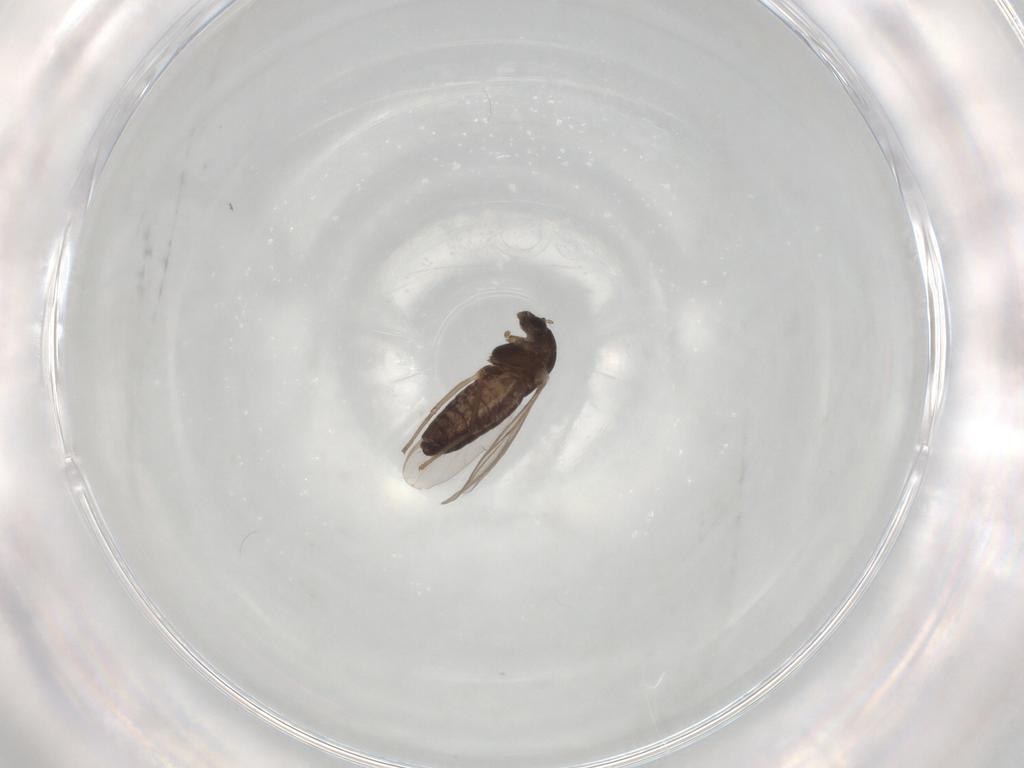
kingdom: Animalia
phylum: Arthropoda
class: Insecta
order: Diptera
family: Chironomidae
